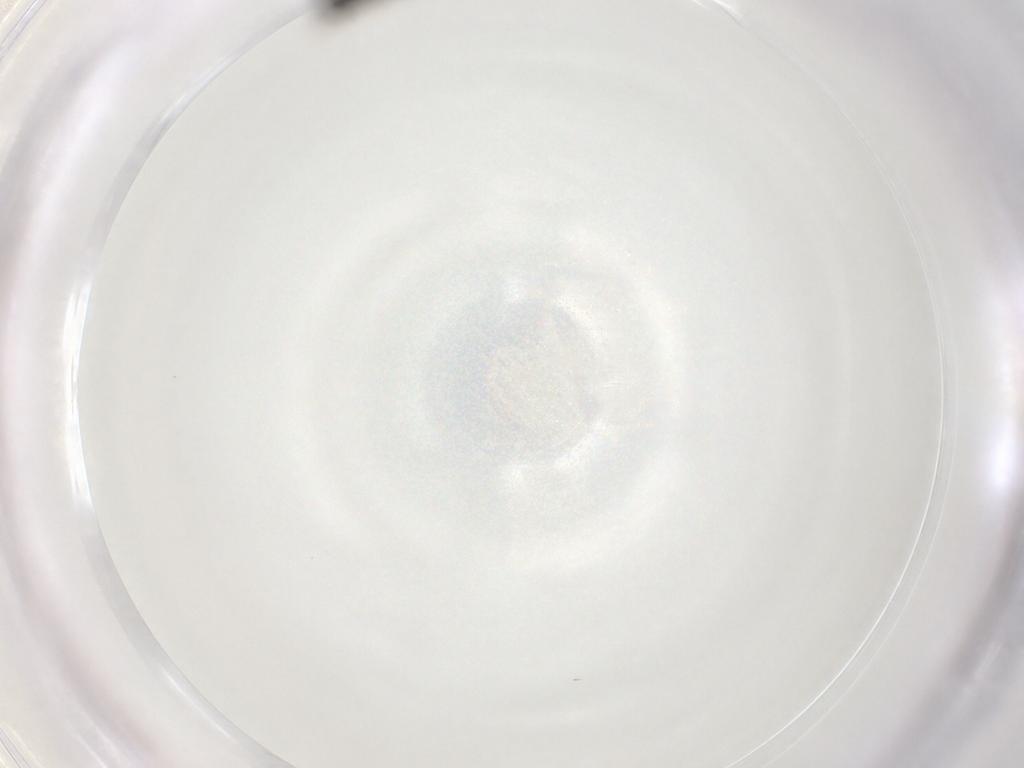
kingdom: Animalia
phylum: Arthropoda
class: Insecta
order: Hymenoptera
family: Scelionidae
